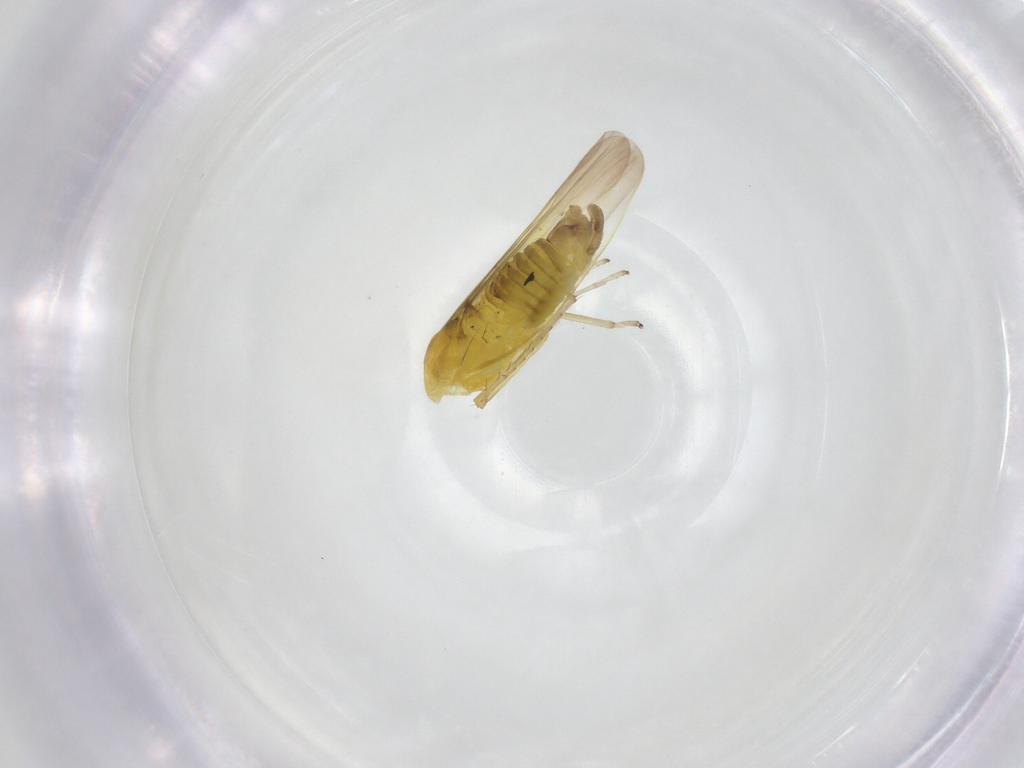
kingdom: Animalia
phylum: Arthropoda
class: Insecta
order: Hemiptera
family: Cicadellidae
